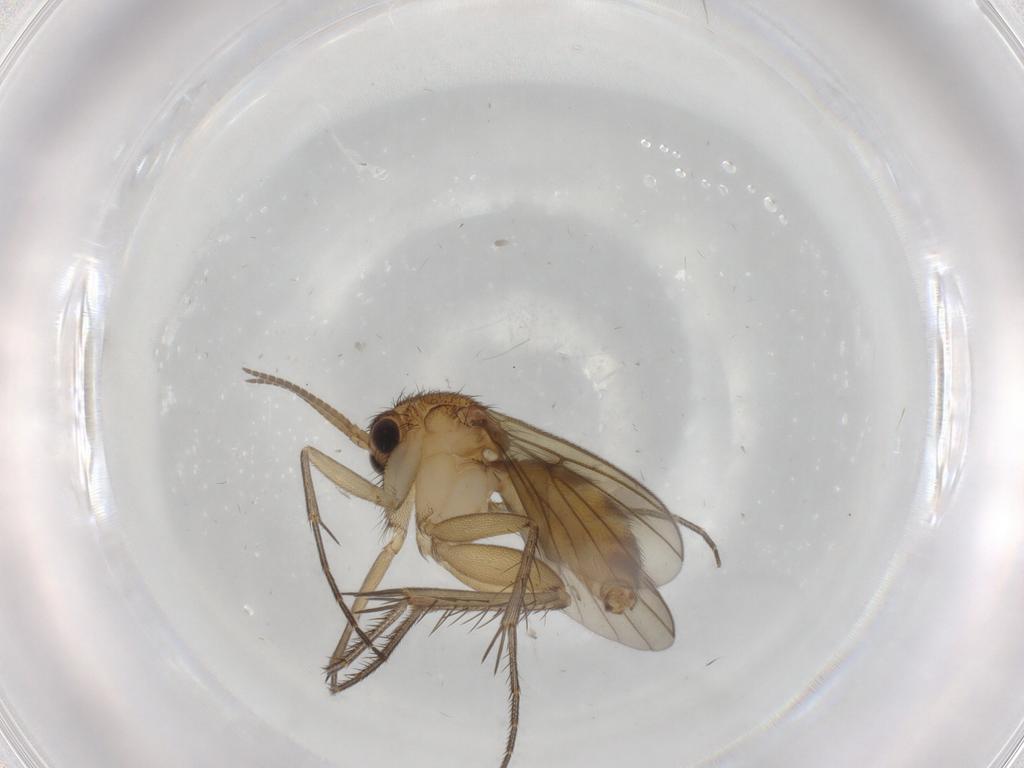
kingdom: Animalia
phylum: Arthropoda
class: Insecta
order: Diptera
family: Mycetophilidae
